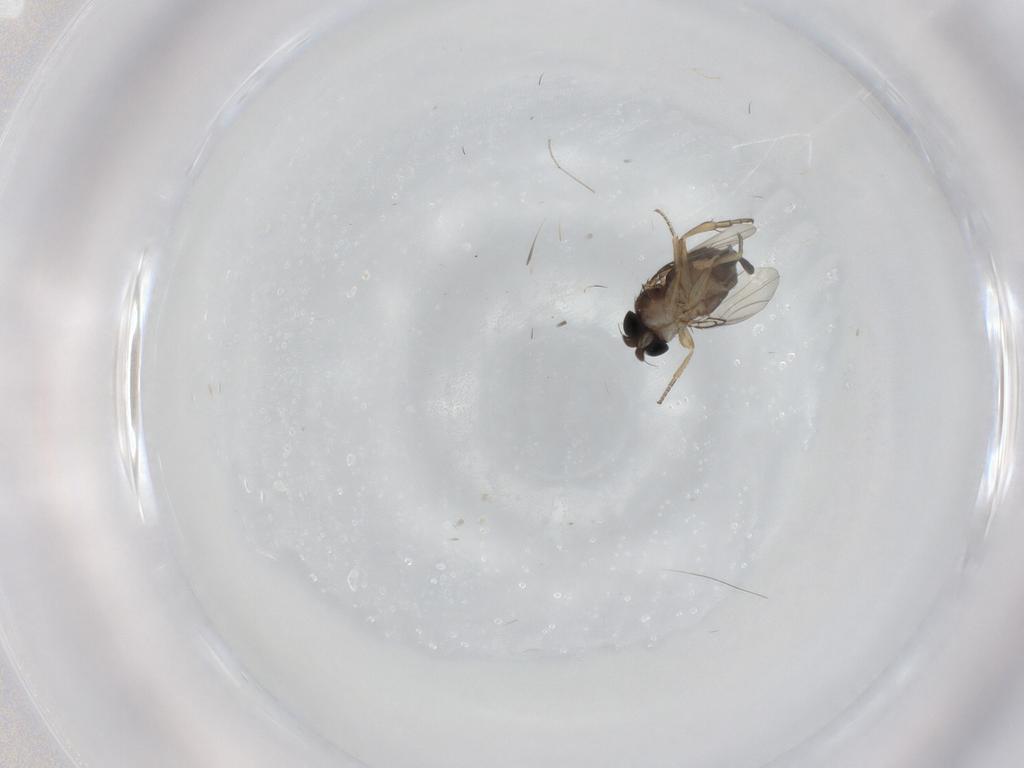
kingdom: Animalia
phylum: Arthropoda
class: Insecta
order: Diptera
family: Phoridae
